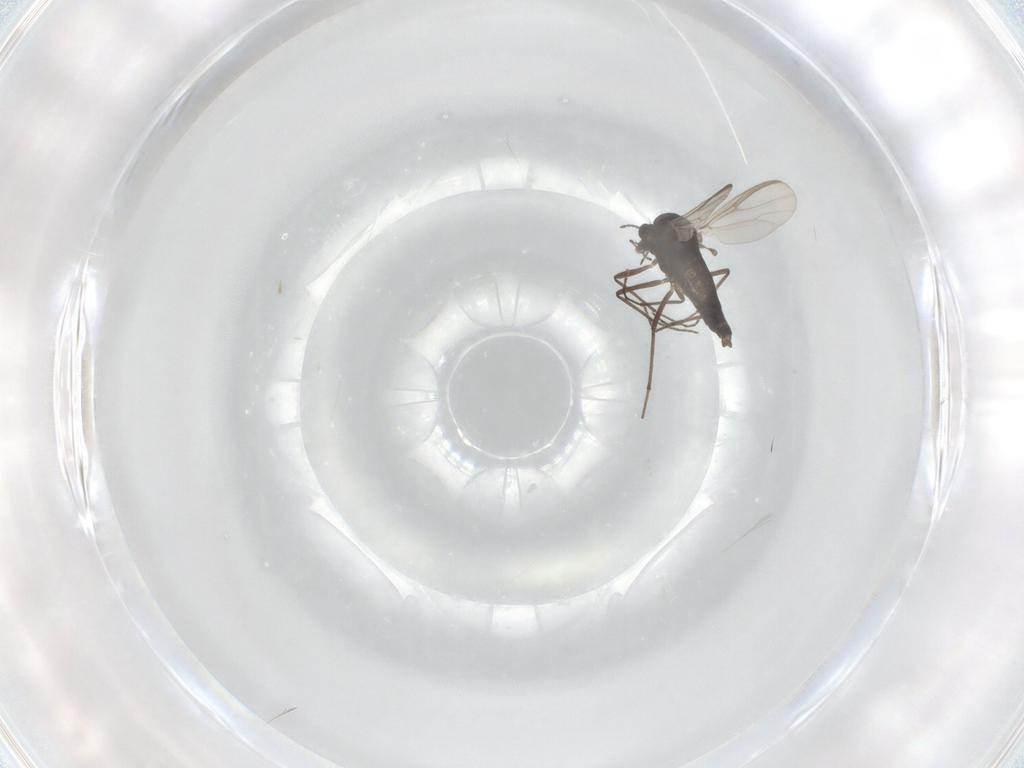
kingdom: Animalia
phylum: Arthropoda
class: Insecta
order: Diptera
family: Chironomidae
